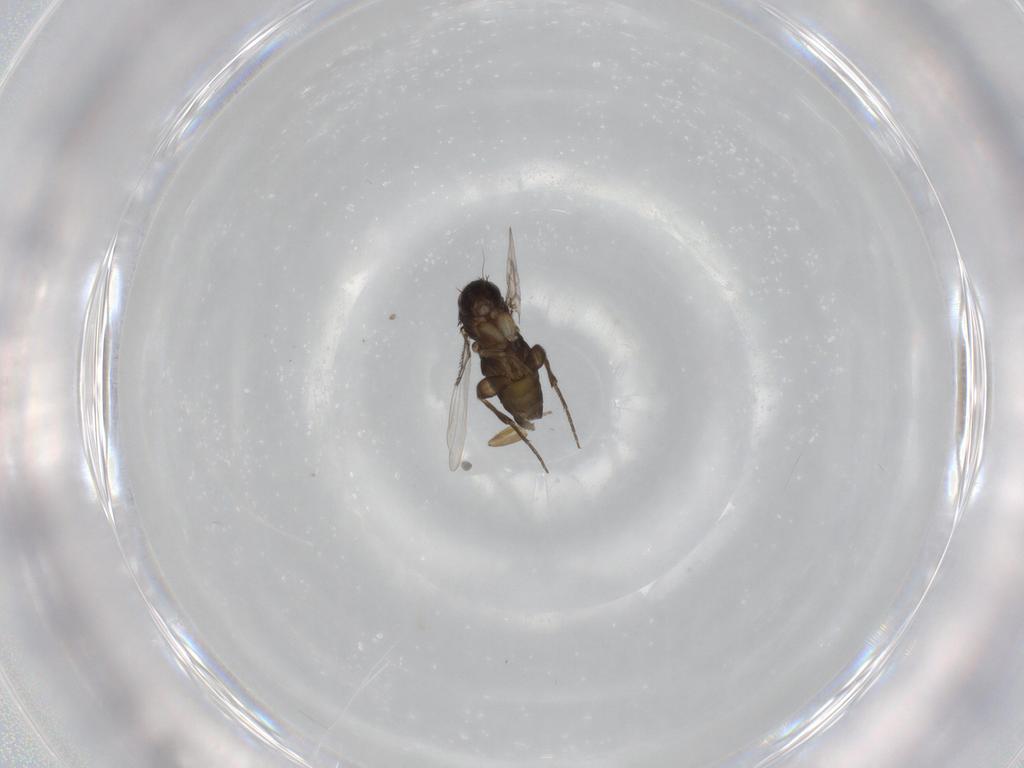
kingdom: Animalia
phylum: Arthropoda
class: Insecta
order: Diptera
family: Phoridae
